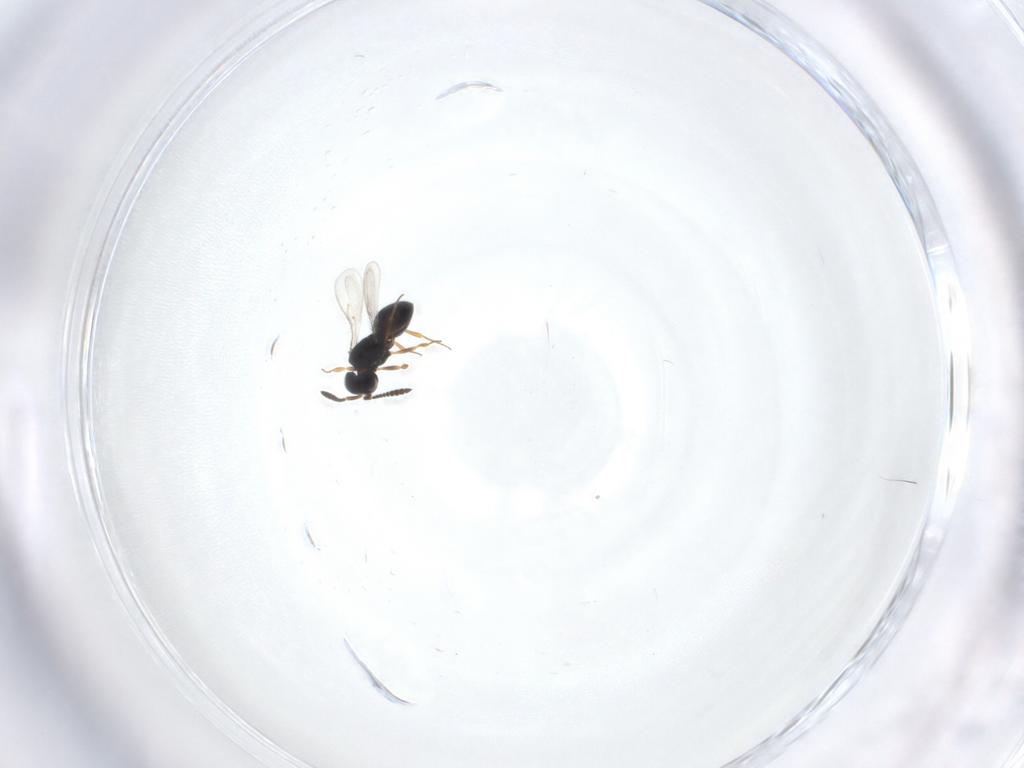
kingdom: Animalia
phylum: Arthropoda
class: Insecta
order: Hymenoptera
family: Scelionidae
